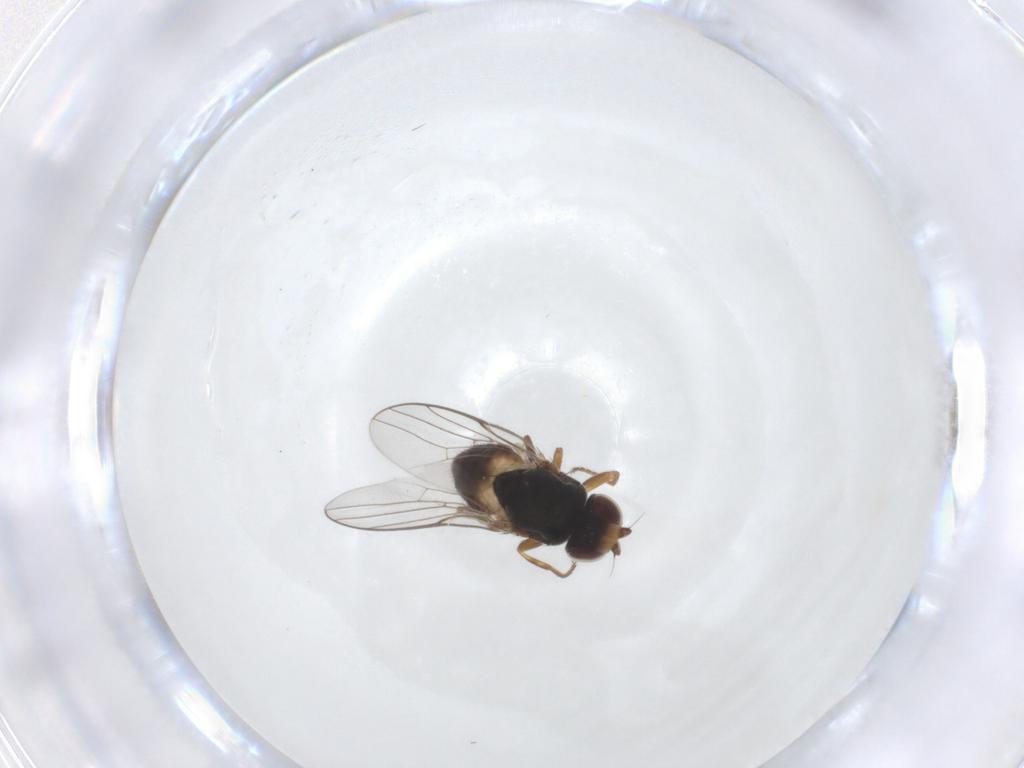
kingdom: Animalia
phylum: Arthropoda
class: Insecta
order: Diptera
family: Chloropidae
